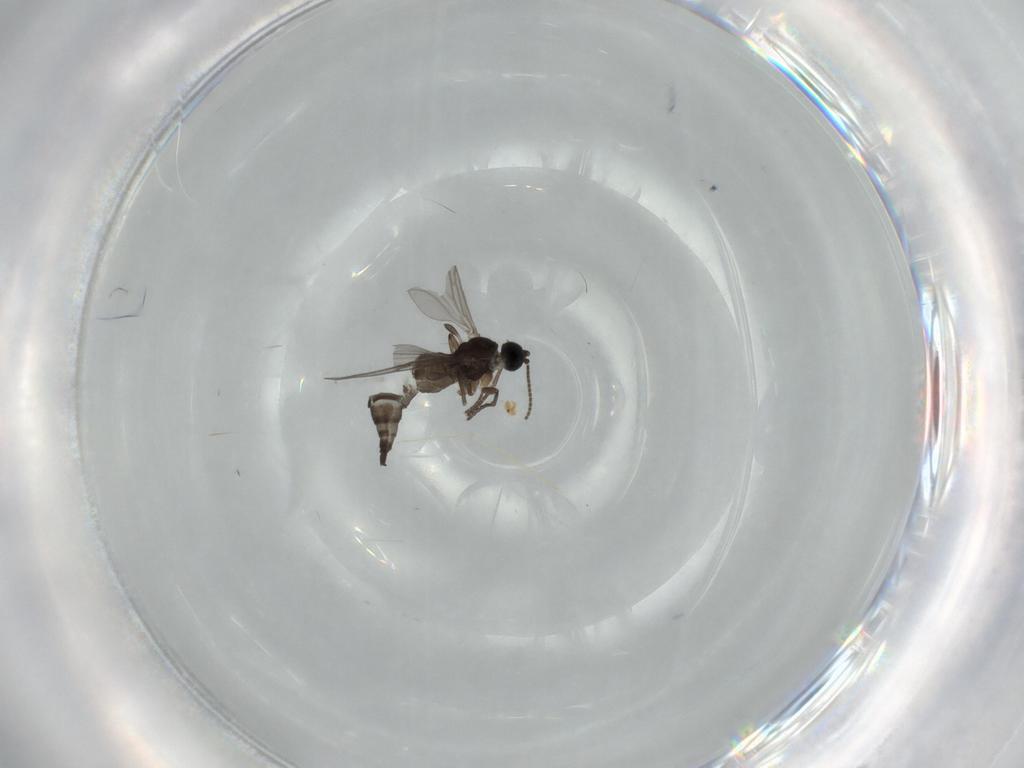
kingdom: Animalia
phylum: Arthropoda
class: Insecta
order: Diptera
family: Sciaridae
